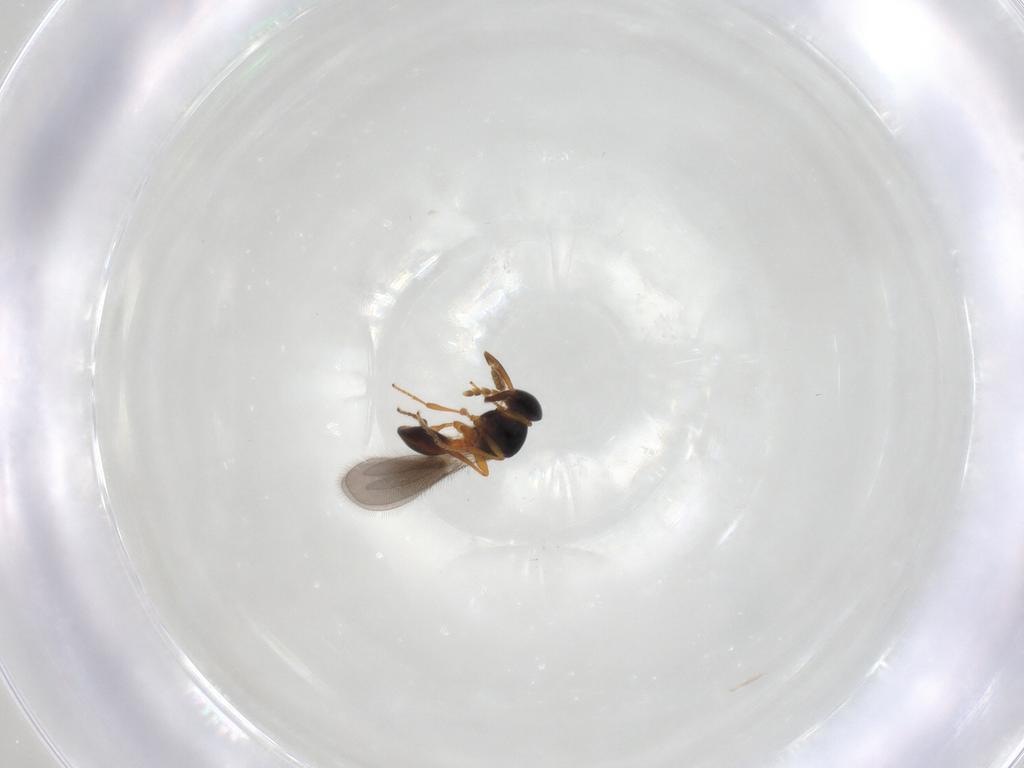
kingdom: Animalia
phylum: Arthropoda
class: Insecta
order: Hymenoptera
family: Platygastridae
